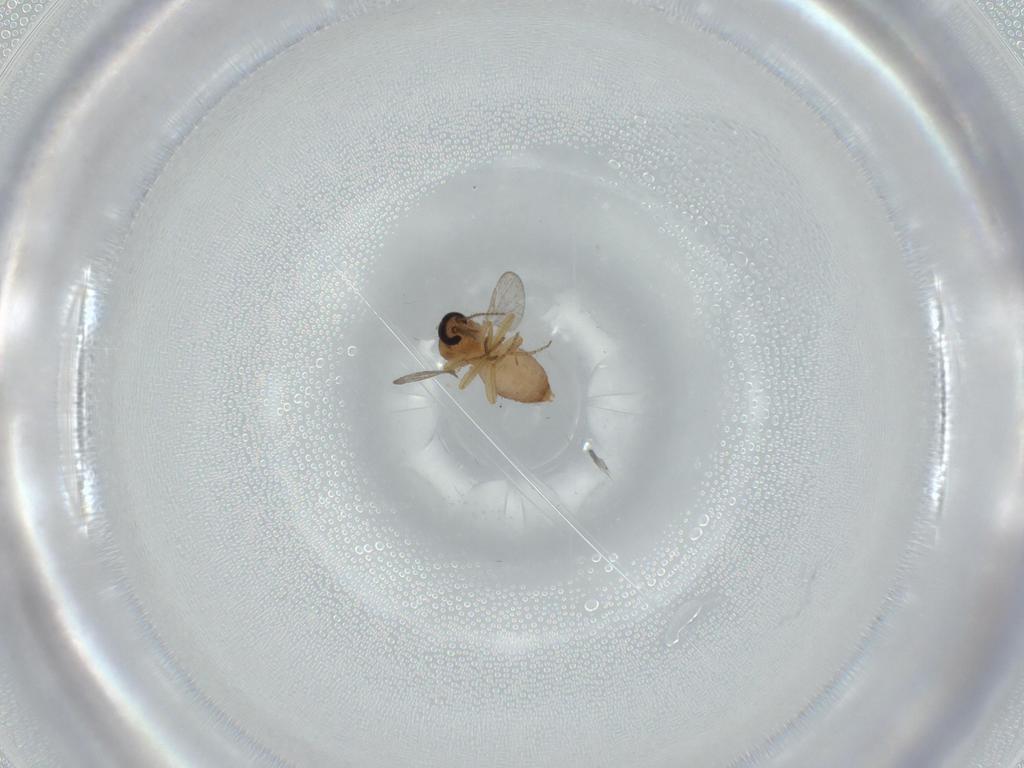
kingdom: Animalia
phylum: Arthropoda
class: Insecta
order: Diptera
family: Ceratopogonidae
